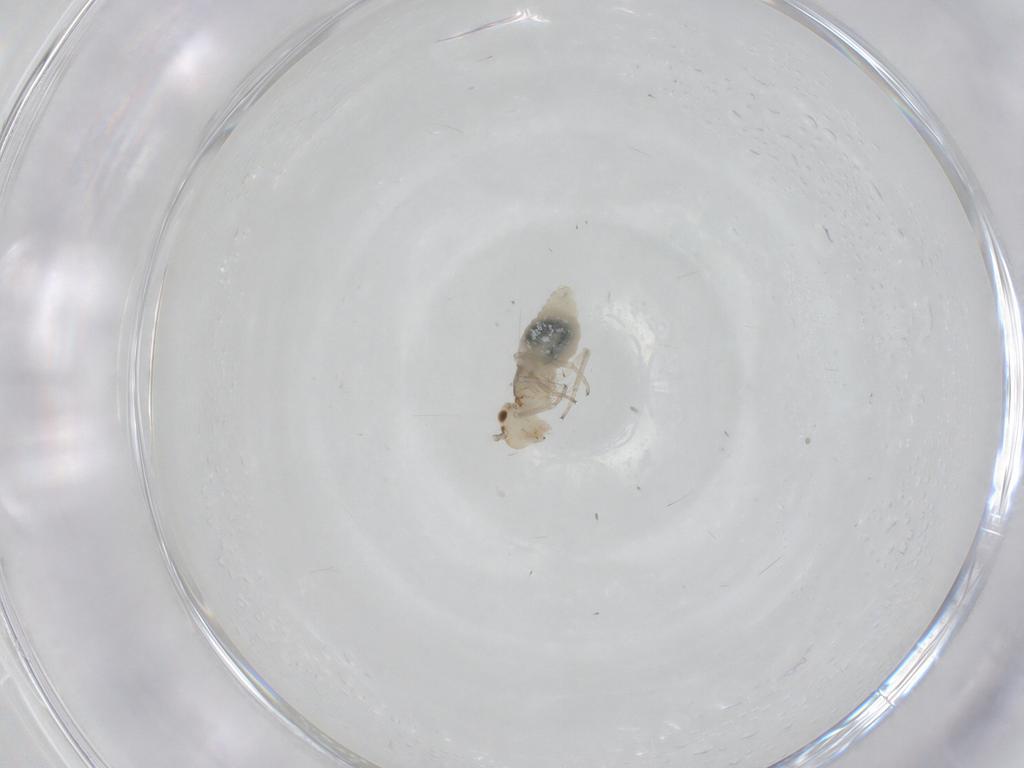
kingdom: Animalia
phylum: Arthropoda
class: Insecta
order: Psocodea
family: Caeciliusidae
